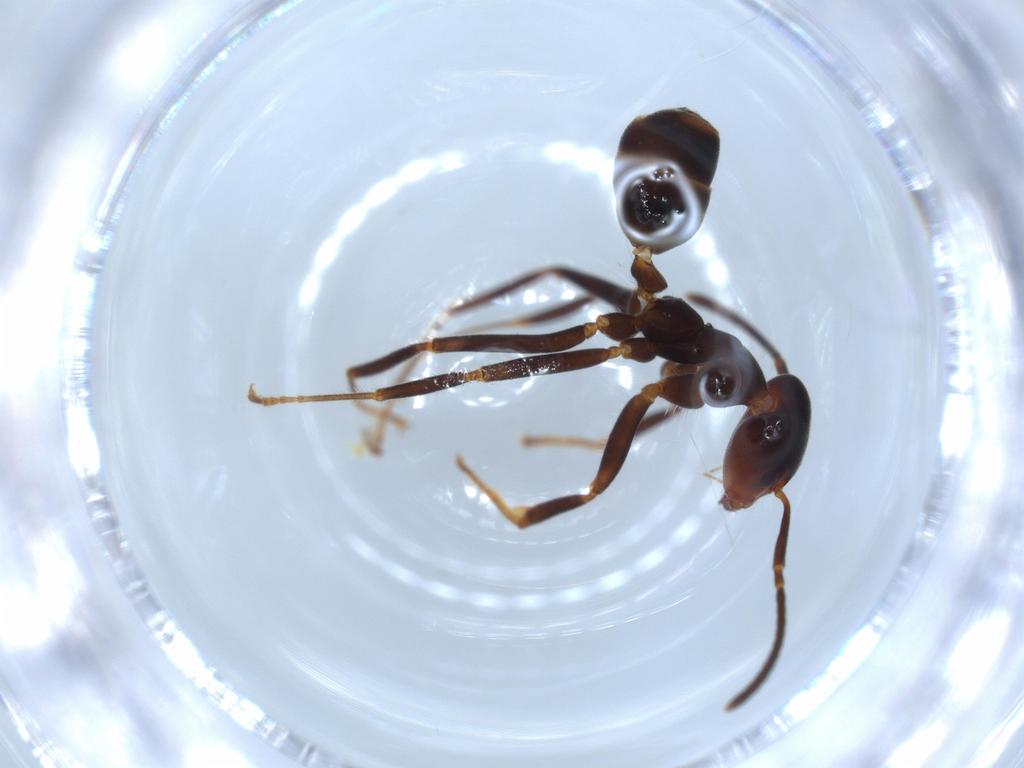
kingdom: Animalia
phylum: Arthropoda
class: Insecta
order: Hymenoptera
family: Formicidae
